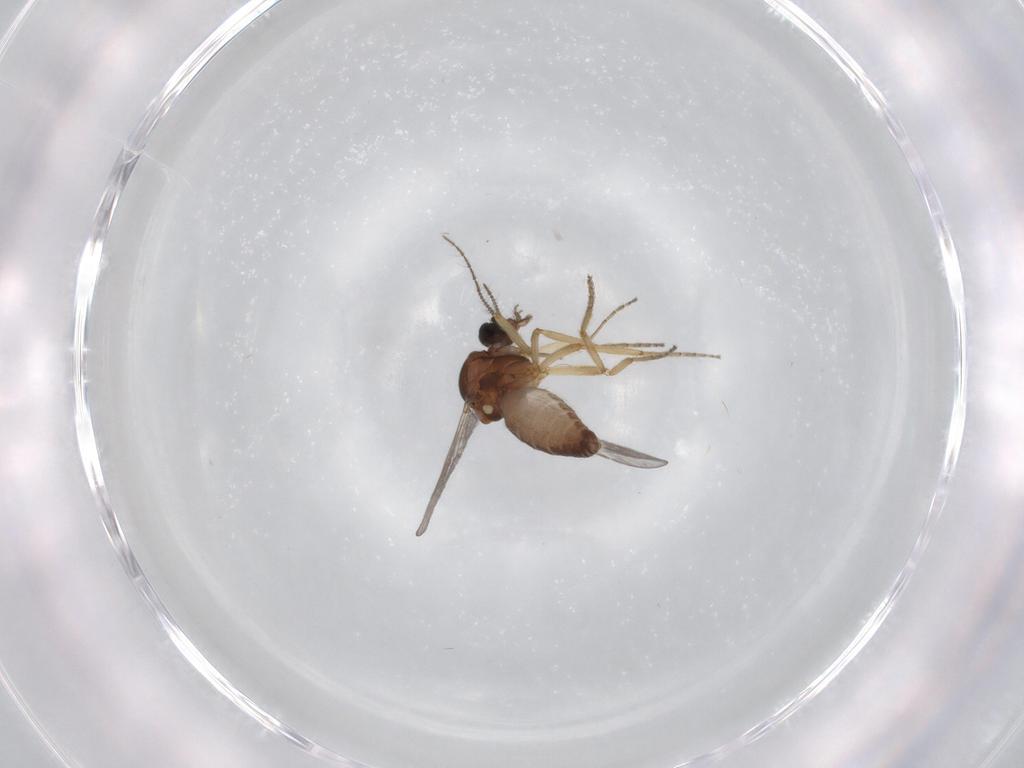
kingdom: Animalia
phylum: Arthropoda
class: Insecta
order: Diptera
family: Ceratopogonidae
